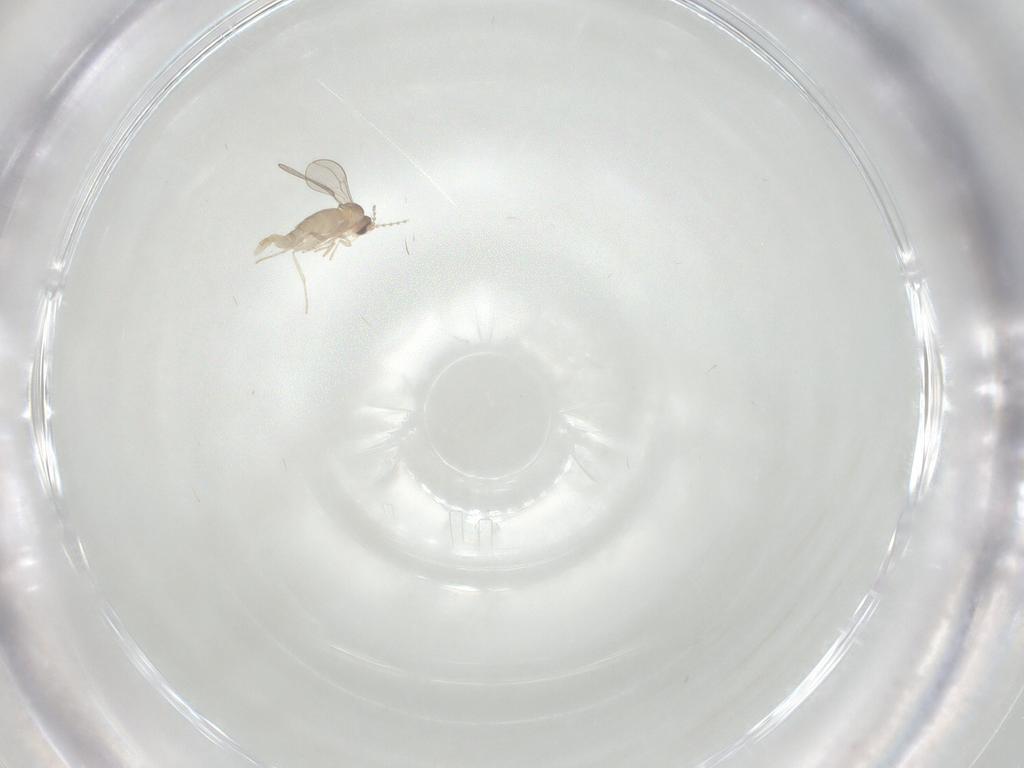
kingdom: Animalia
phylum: Arthropoda
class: Insecta
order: Diptera
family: Cecidomyiidae
